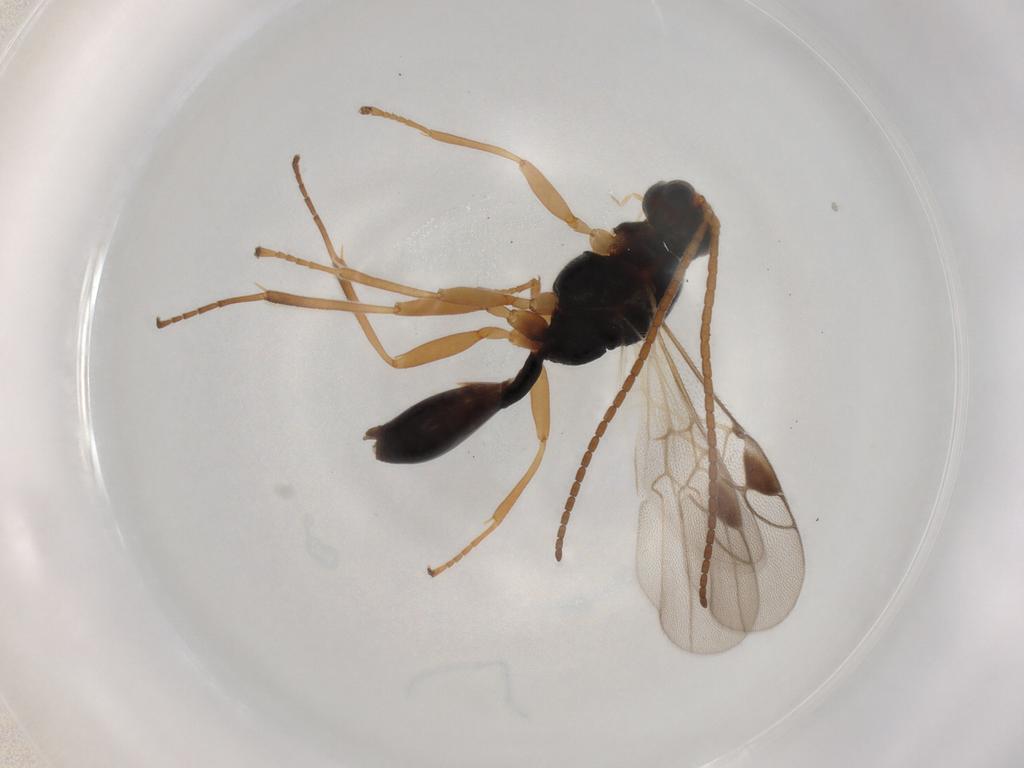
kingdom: Animalia
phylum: Arthropoda
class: Insecta
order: Hymenoptera
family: Braconidae
